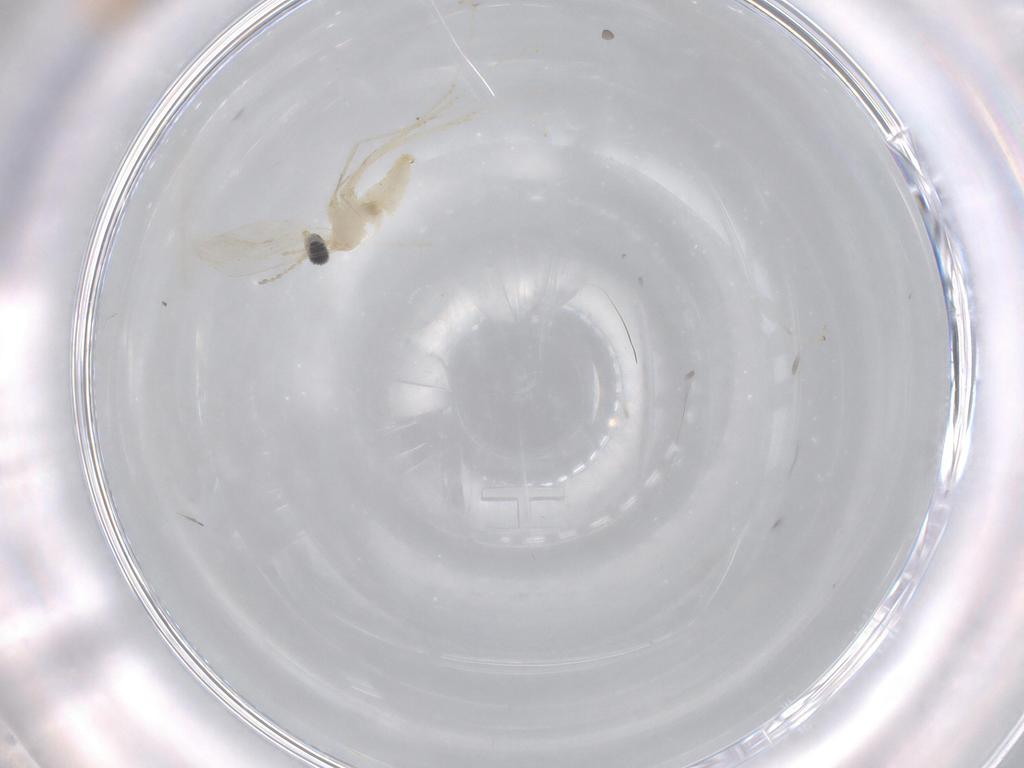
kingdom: Animalia
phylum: Arthropoda
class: Insecta
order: Diptera
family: Cecidomyiidae
